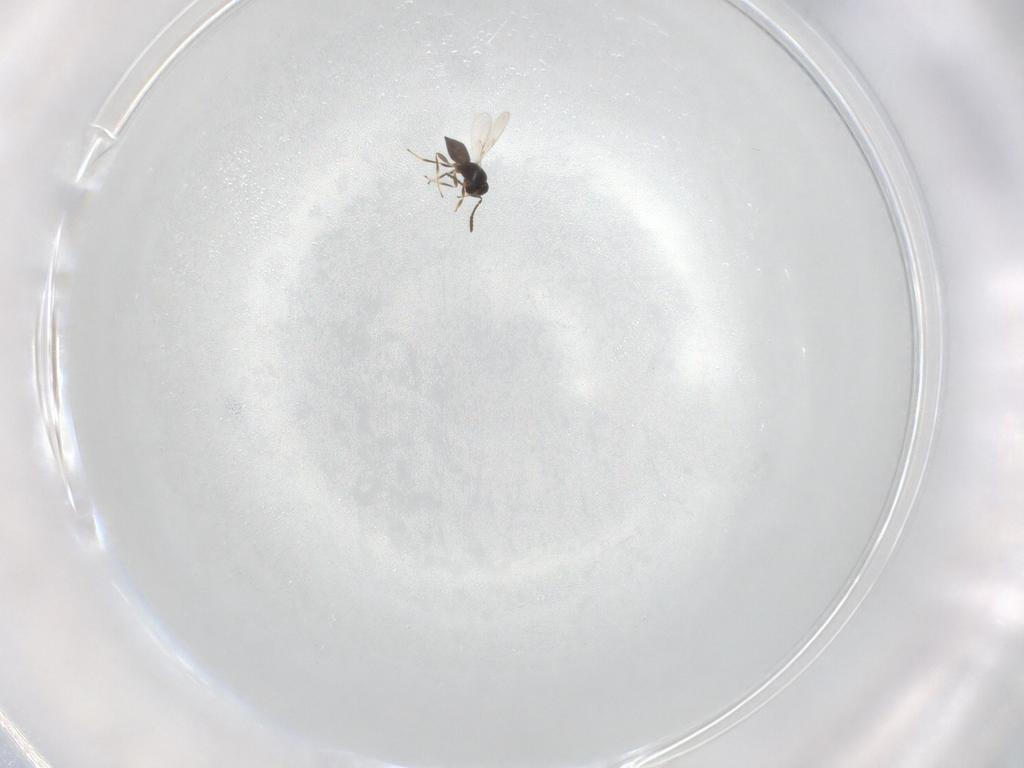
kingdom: Animalia
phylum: Arthropoda
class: Insecta
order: Hymenoptera
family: Scelionidae
